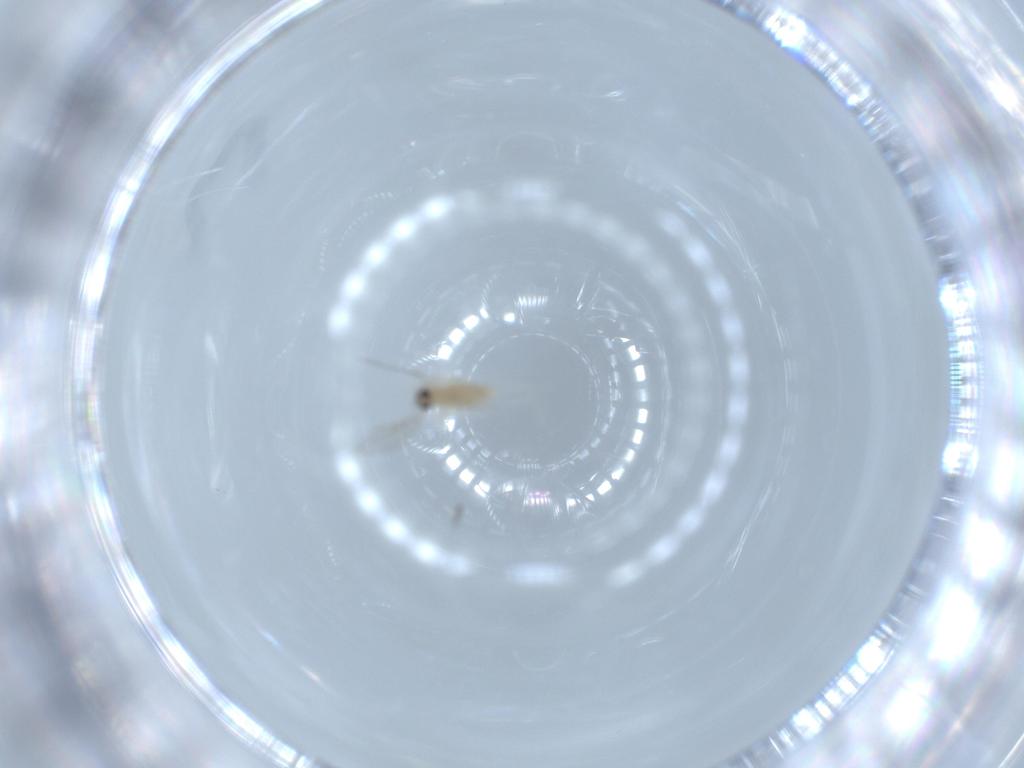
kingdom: Animalia
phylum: Arthropoda
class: Insecta
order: Diptera
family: Cecidomyiidae
